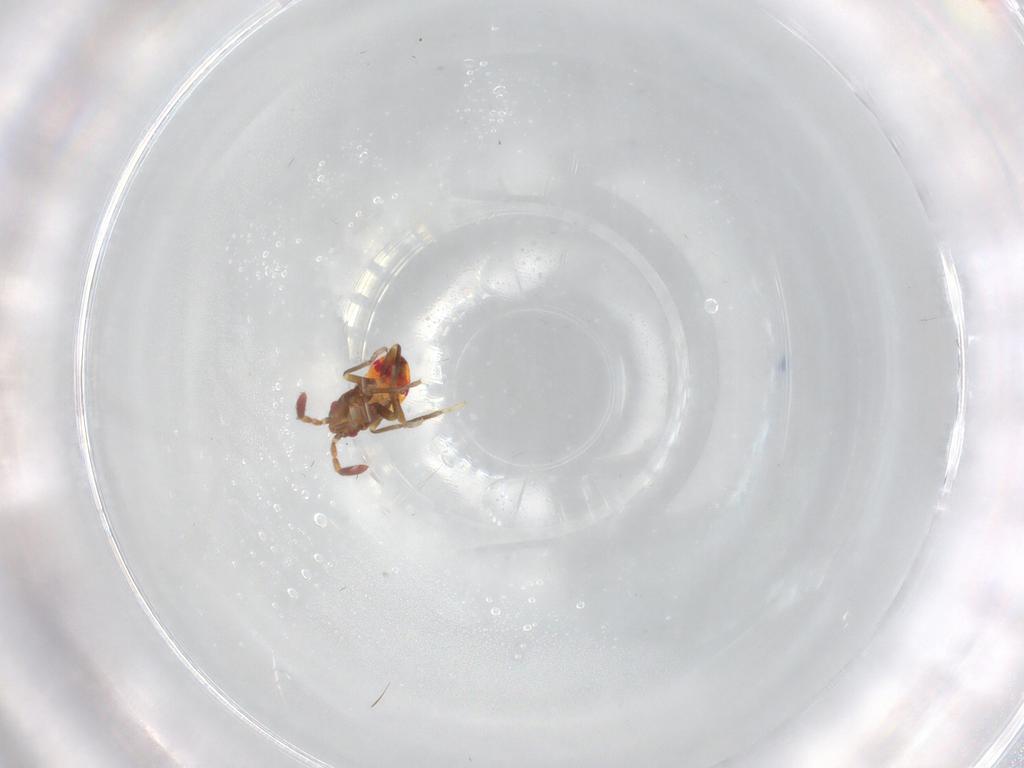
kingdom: Animalia
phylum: Arthropoda
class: Insecta
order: Hemiptera
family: Rhyparochromidae
